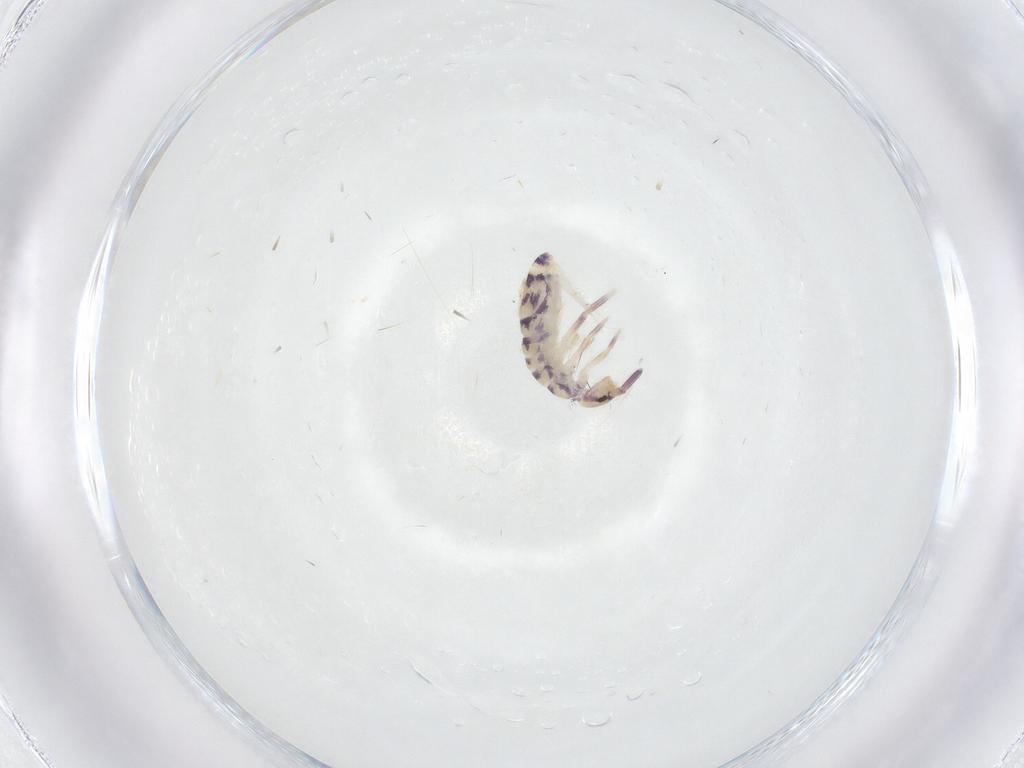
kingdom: Animalia
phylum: Arthropoda
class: Collembola
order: Entomobryomorpha
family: Entomobryidae
